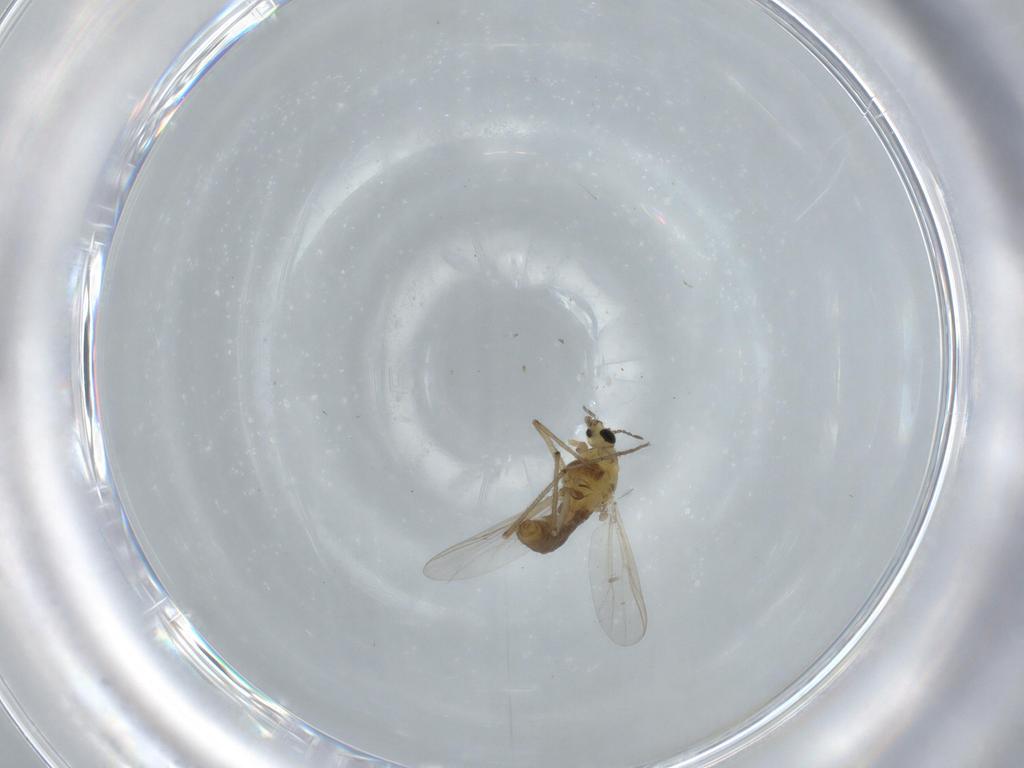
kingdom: Animalia
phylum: Arthropoda
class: Insecta
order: Diptera
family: Chironomidae
